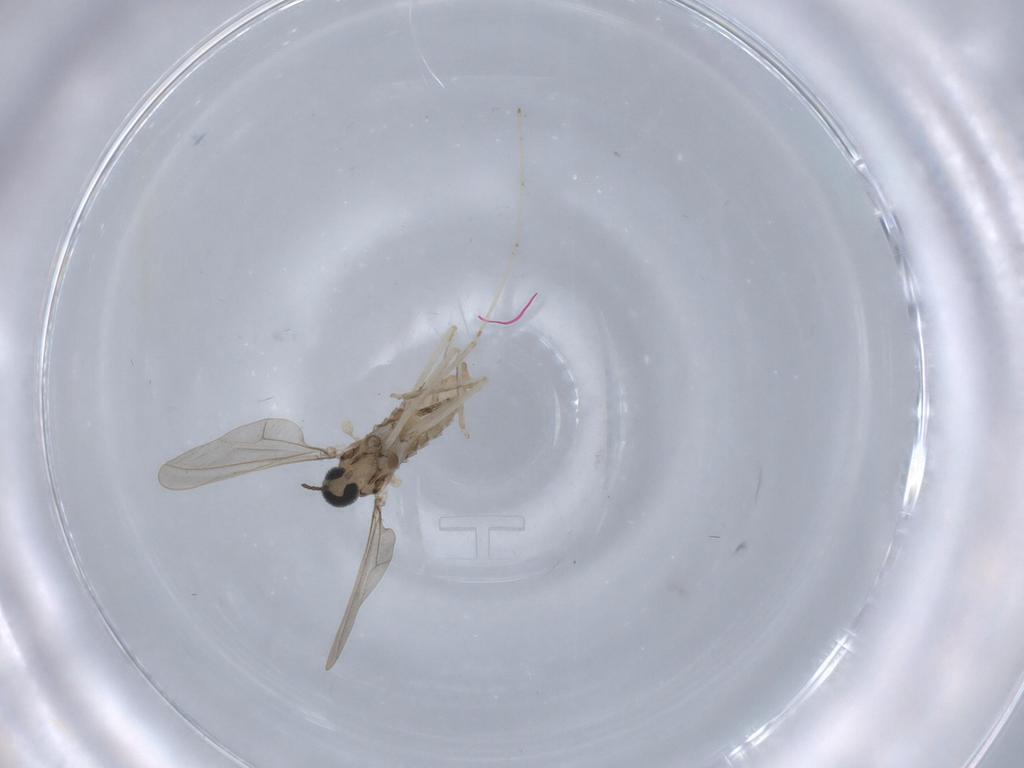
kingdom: Animalia
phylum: Arthropoda
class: Insecta
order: Diptera
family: Cecidomyiidae
